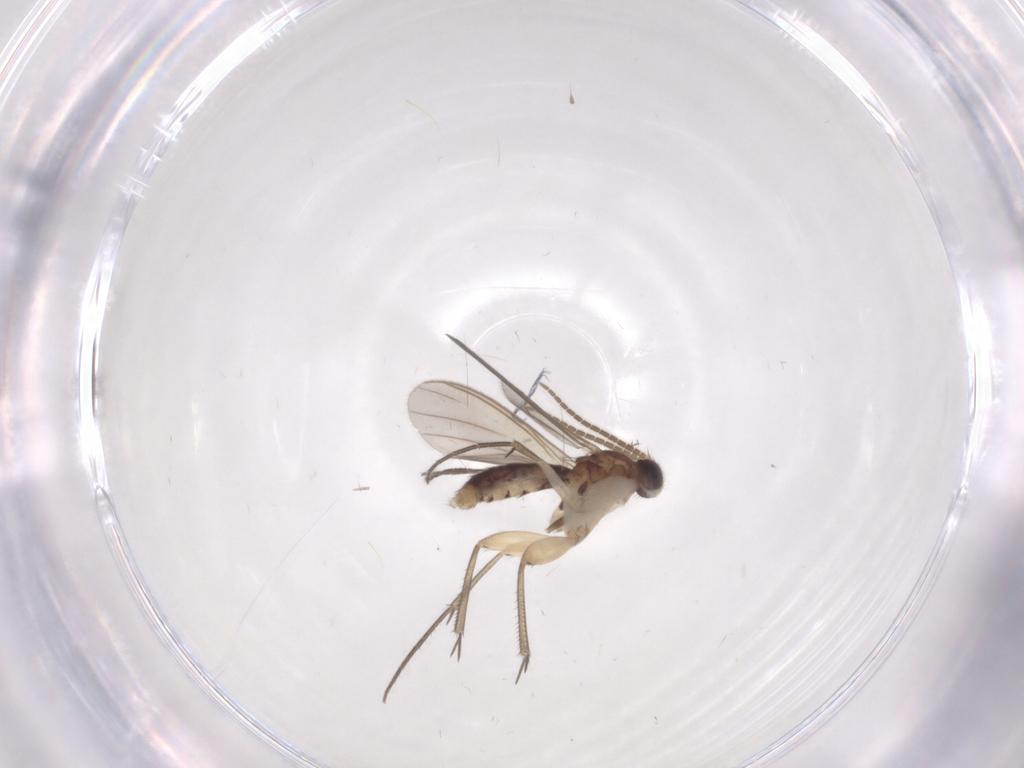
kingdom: Animalia
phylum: Arthropoda
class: Insecta
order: Diptera
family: Mycetophilidae
